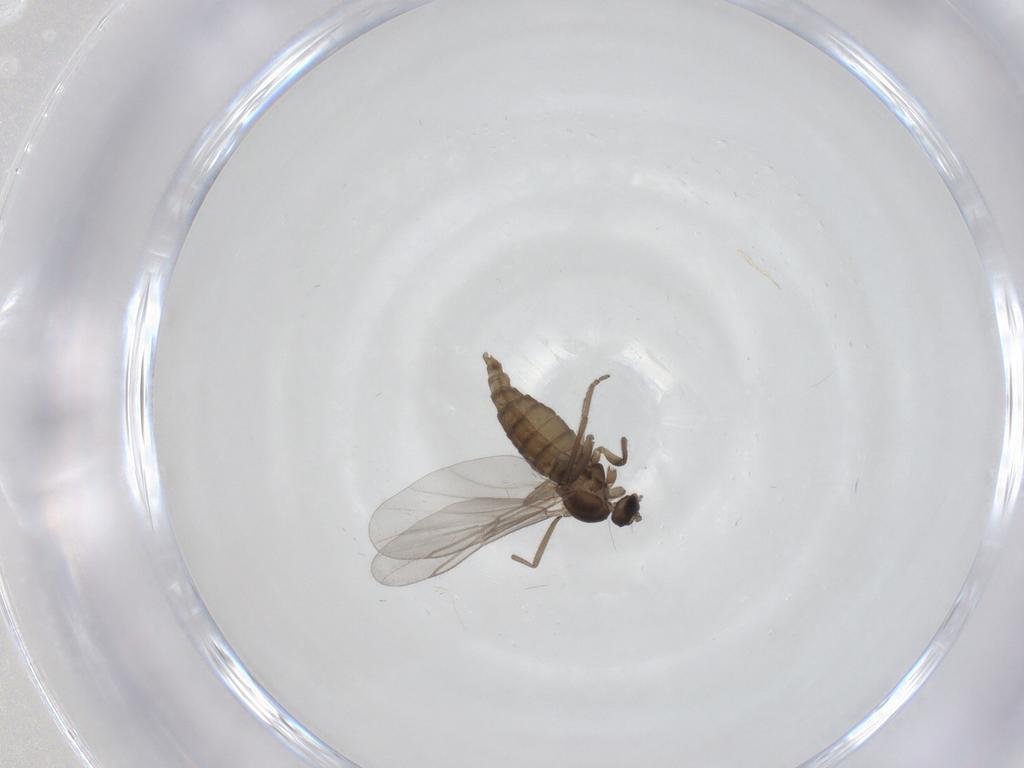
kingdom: Animalia
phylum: Arthropoda
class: Insecta
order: Diptera
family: Cecidomyiidae
